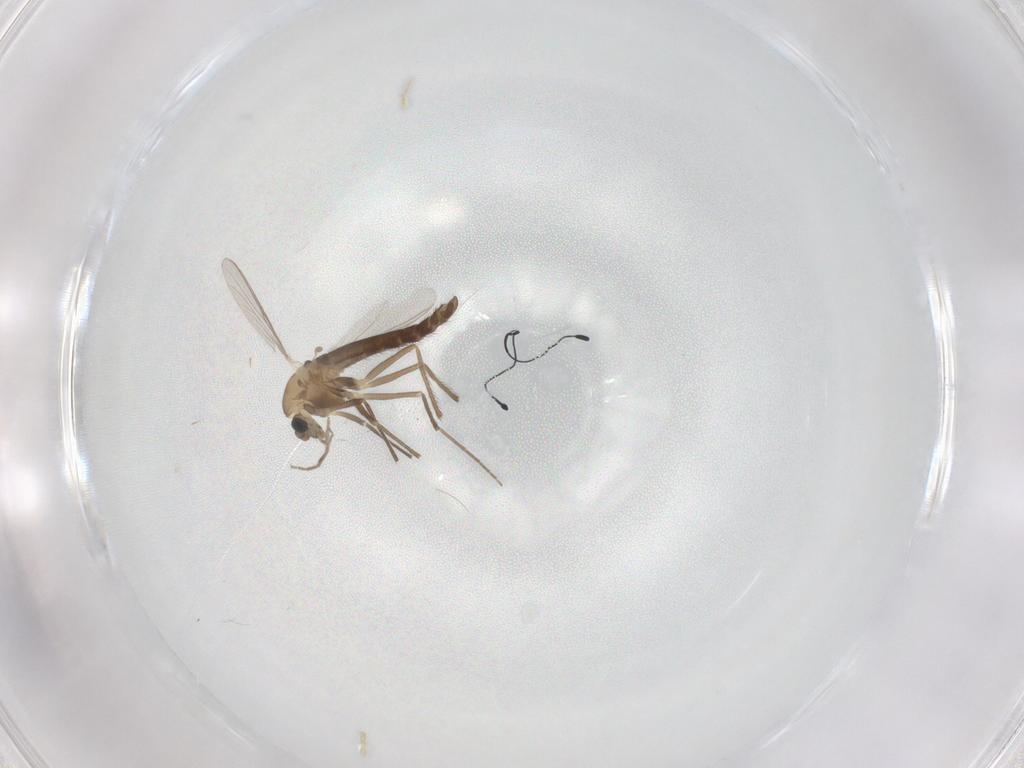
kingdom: Animalia
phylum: Arthropoda
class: Insecta
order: Diptera
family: Chironomidae
